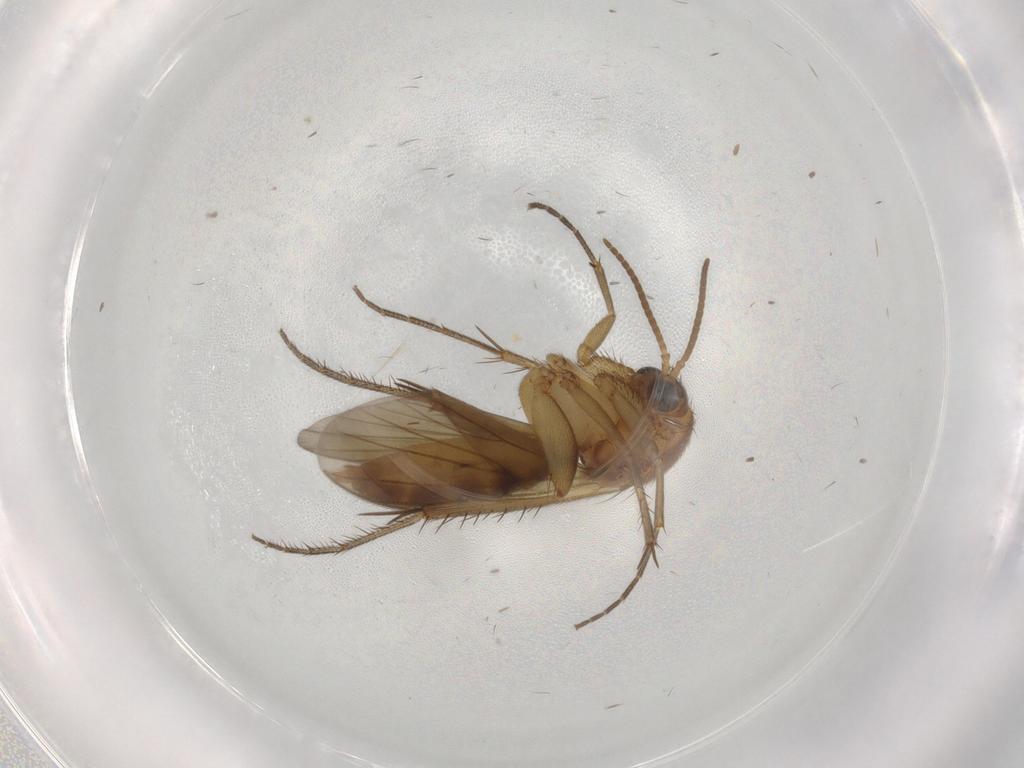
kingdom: Animalia
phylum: Arthropoda
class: Insecta
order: Diptera
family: Mycetophilidae
